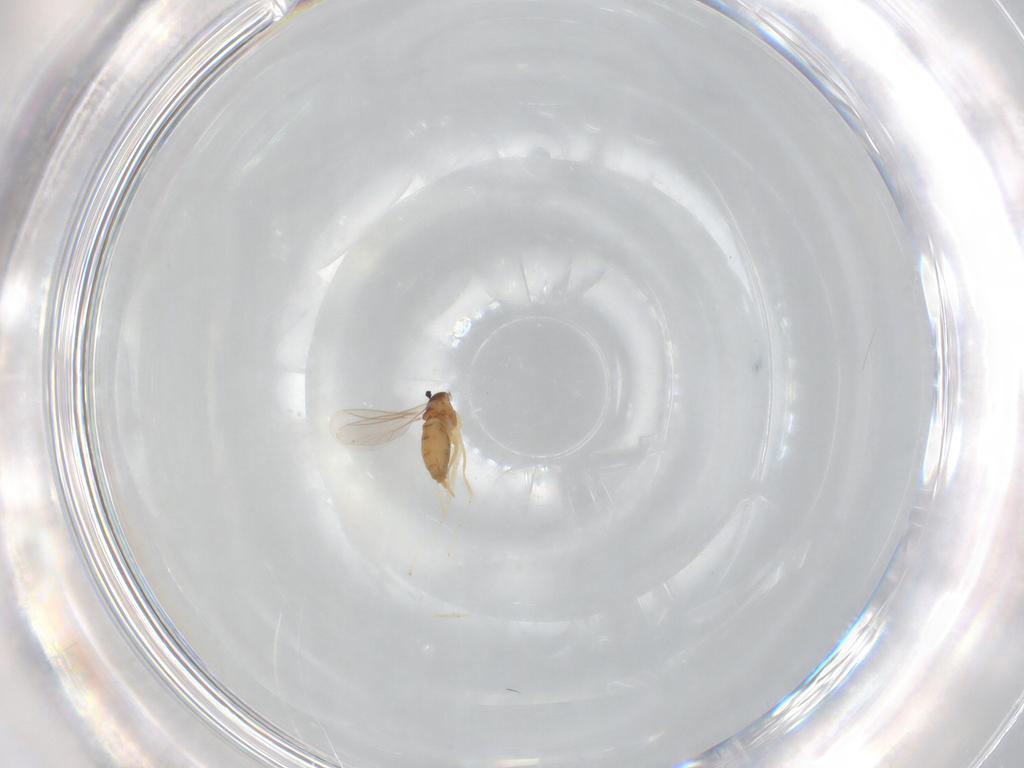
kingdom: Animalia
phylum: Arthropoda
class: Insecta
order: Diptera
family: Cecidomyiidae
